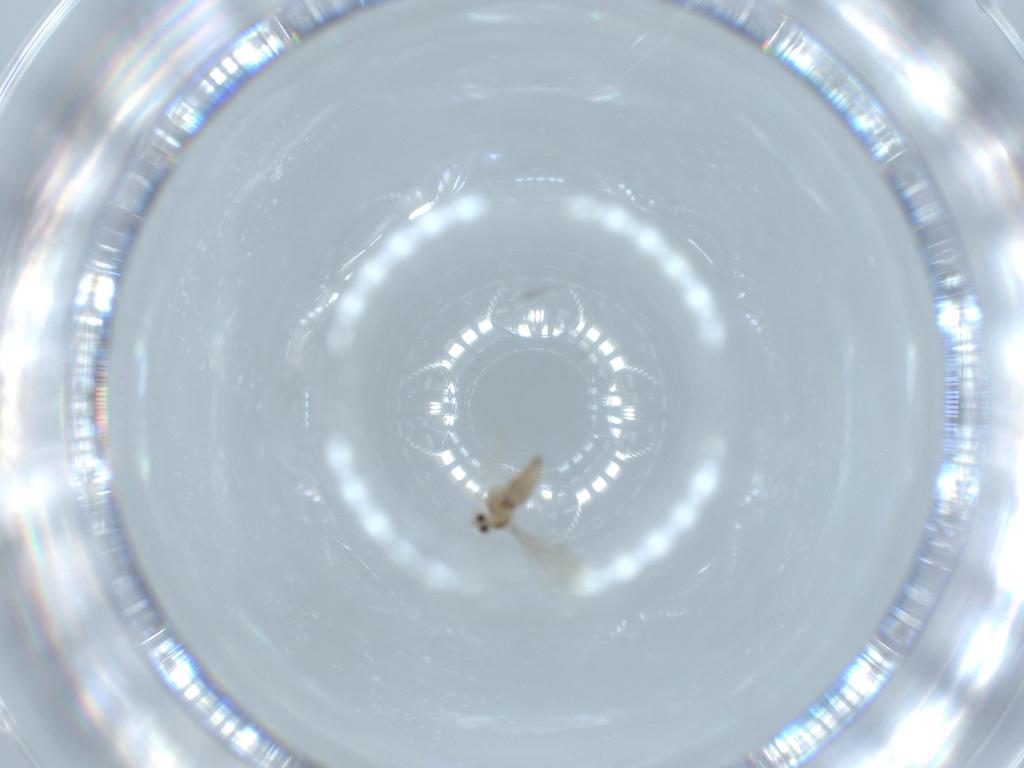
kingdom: Animalia
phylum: Arthropoda
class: Insecta
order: Diptera
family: Cecidomyiidae
